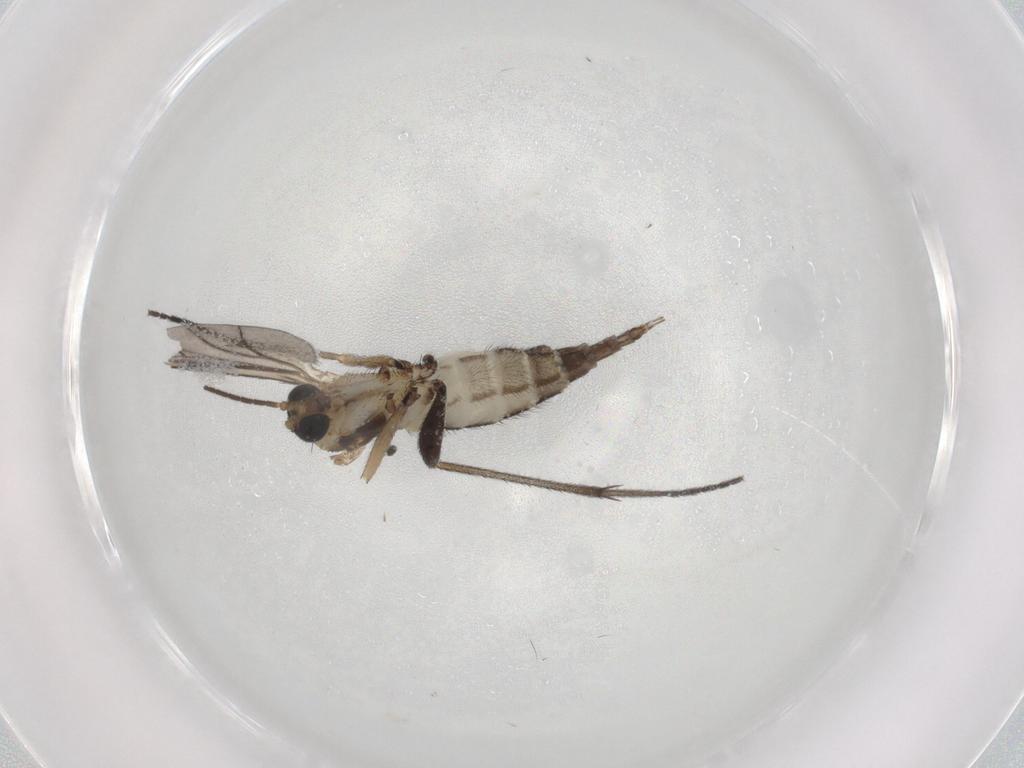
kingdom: Animalia
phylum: Arthropoda
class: Insecta
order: Diptera
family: Sciaridae
